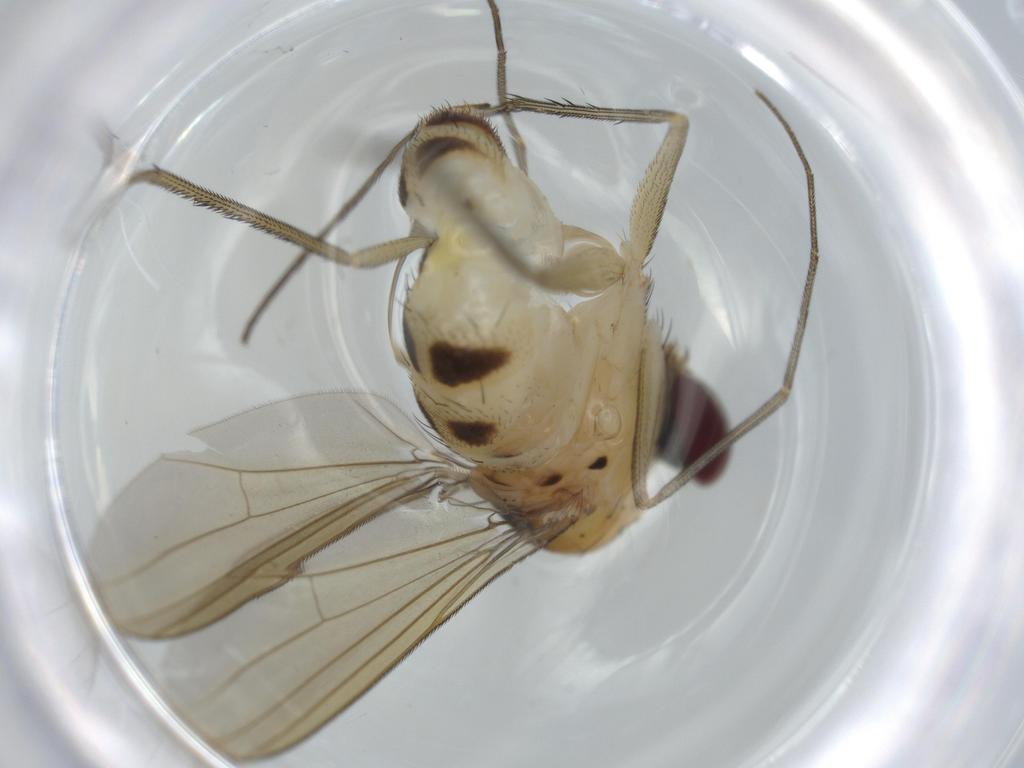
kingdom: Animalia
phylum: Arthropoda
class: Insecta
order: Diptera
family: Dolichopodidae
